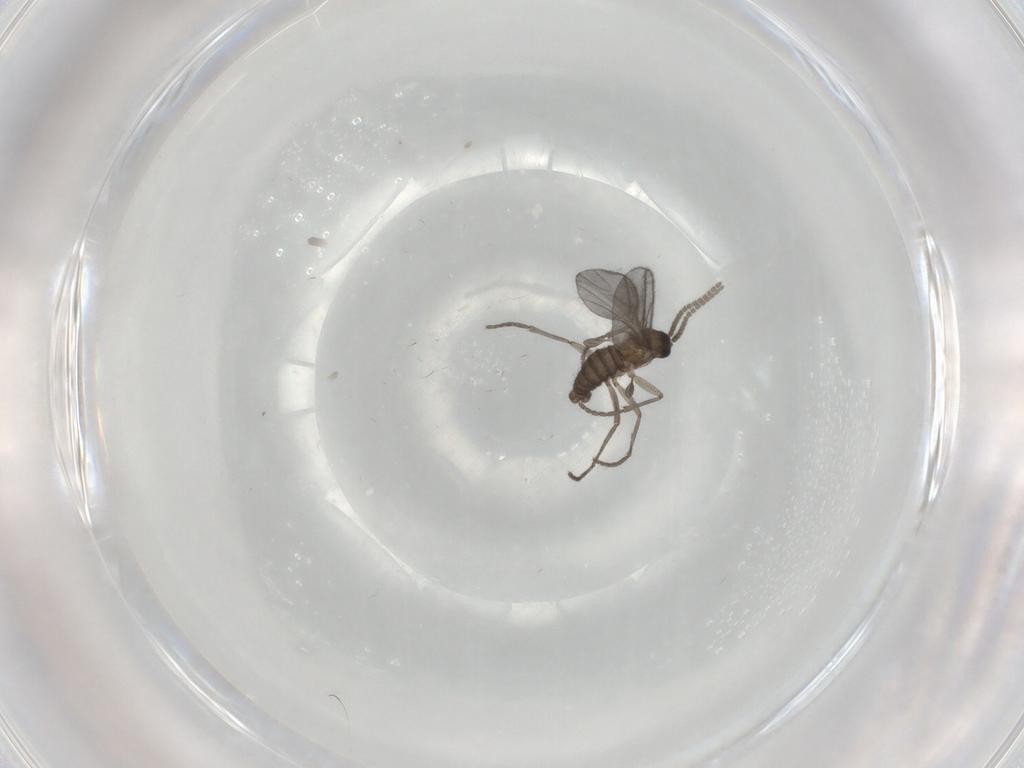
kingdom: Animalia
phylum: Arthropoda
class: Insecta
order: Diptera
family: Sciaridae
